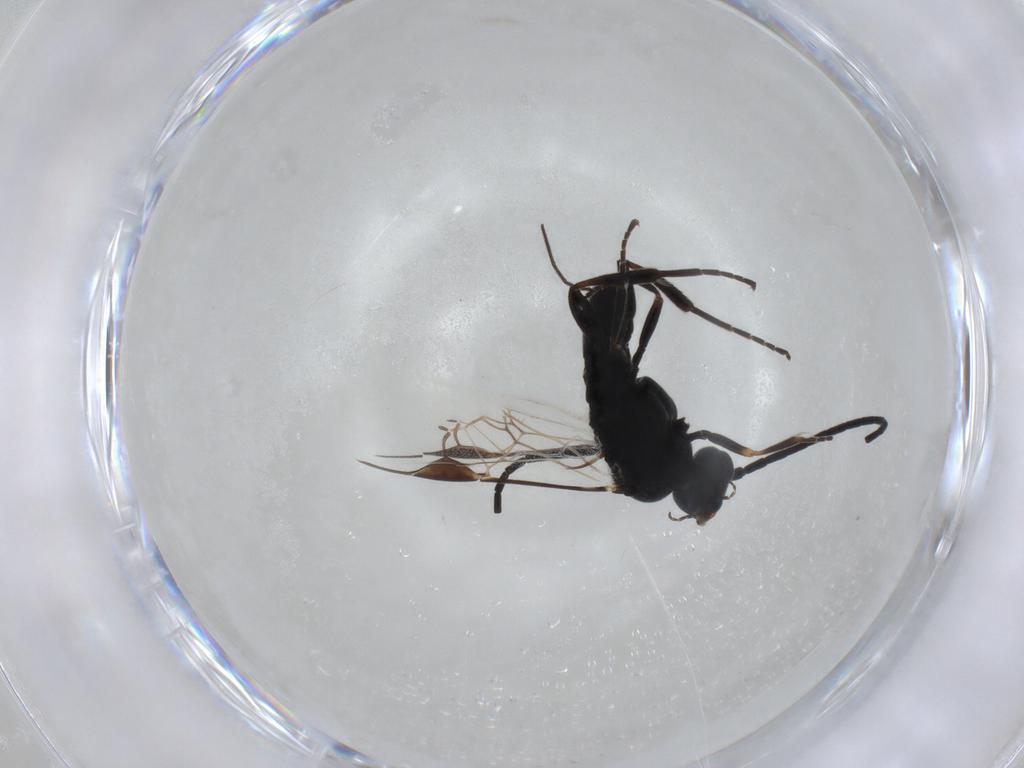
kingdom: Animalia
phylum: Arthropoda
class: Insecta
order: Hymenoptera
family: Braconidae
